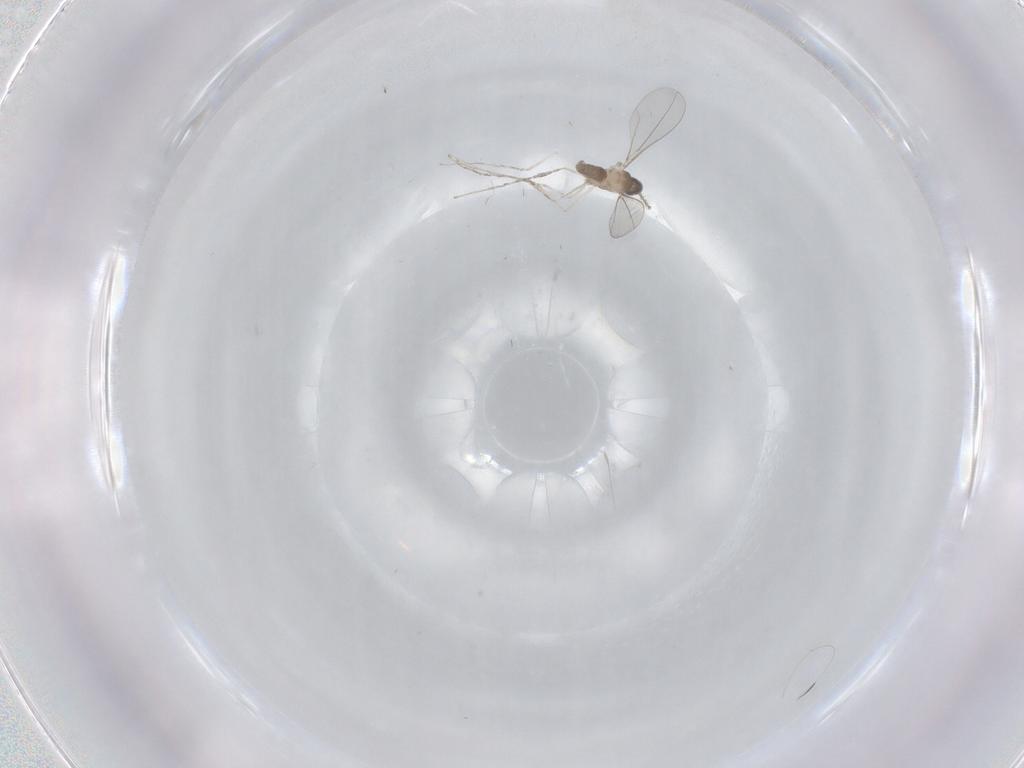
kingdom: Animalia
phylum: Arthropoda
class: Insecta
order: Diptera
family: Cecidomyiidae
